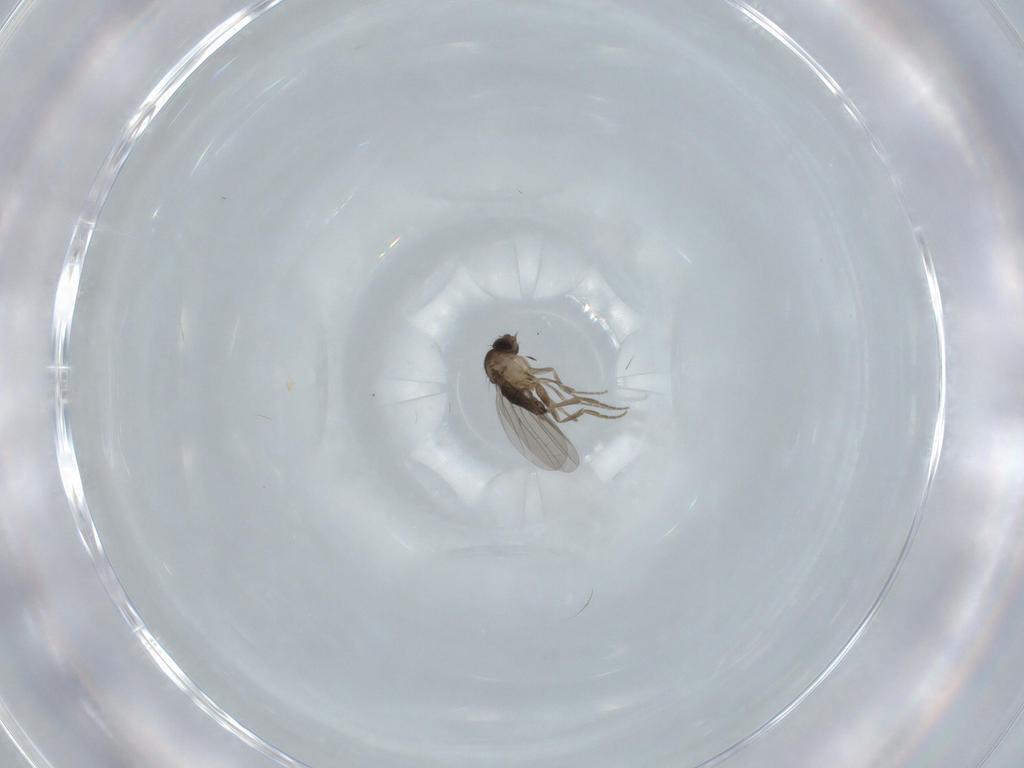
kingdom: Animalia
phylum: Arthropoda
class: Insecta
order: Diptera
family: Phoridae
